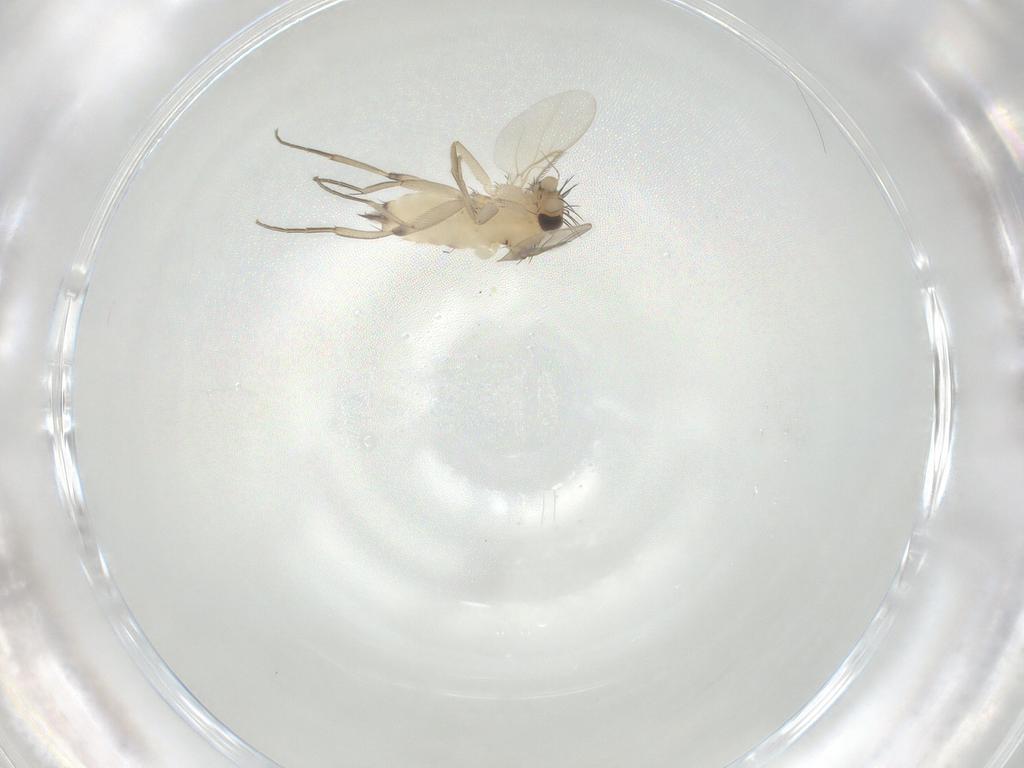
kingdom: Animalia
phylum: Arthropoda
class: Insecta
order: Diptera
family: Phoridae
